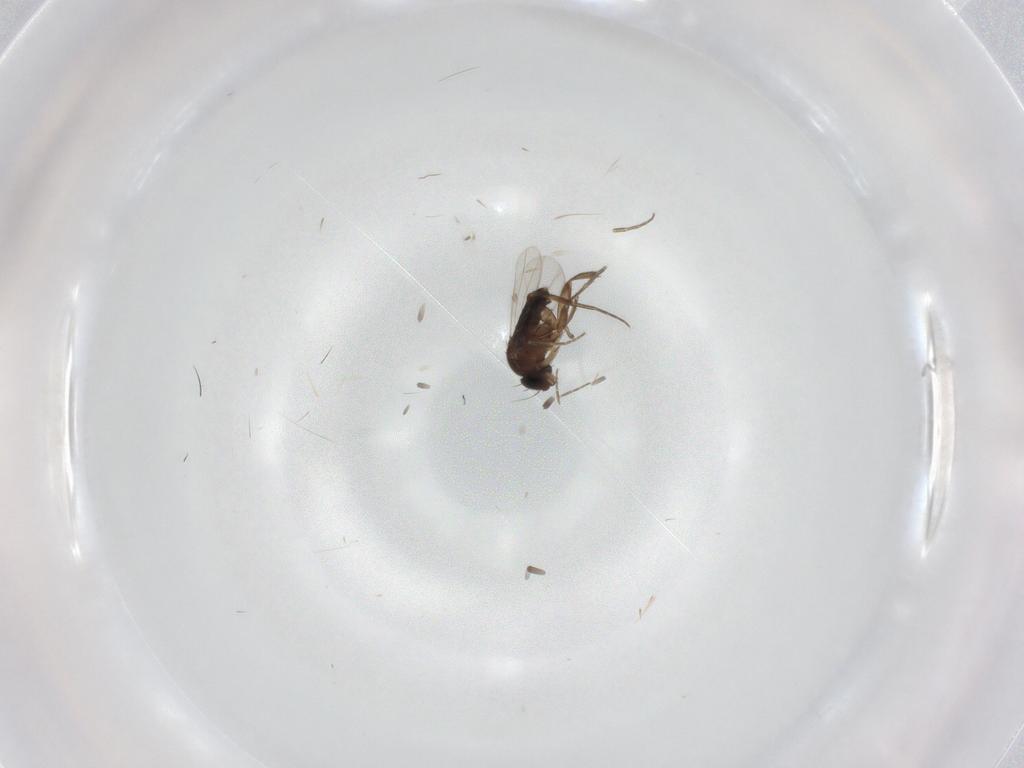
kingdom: Animalia
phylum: Arthropoda
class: Insecta
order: Diptera
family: Phoridae
